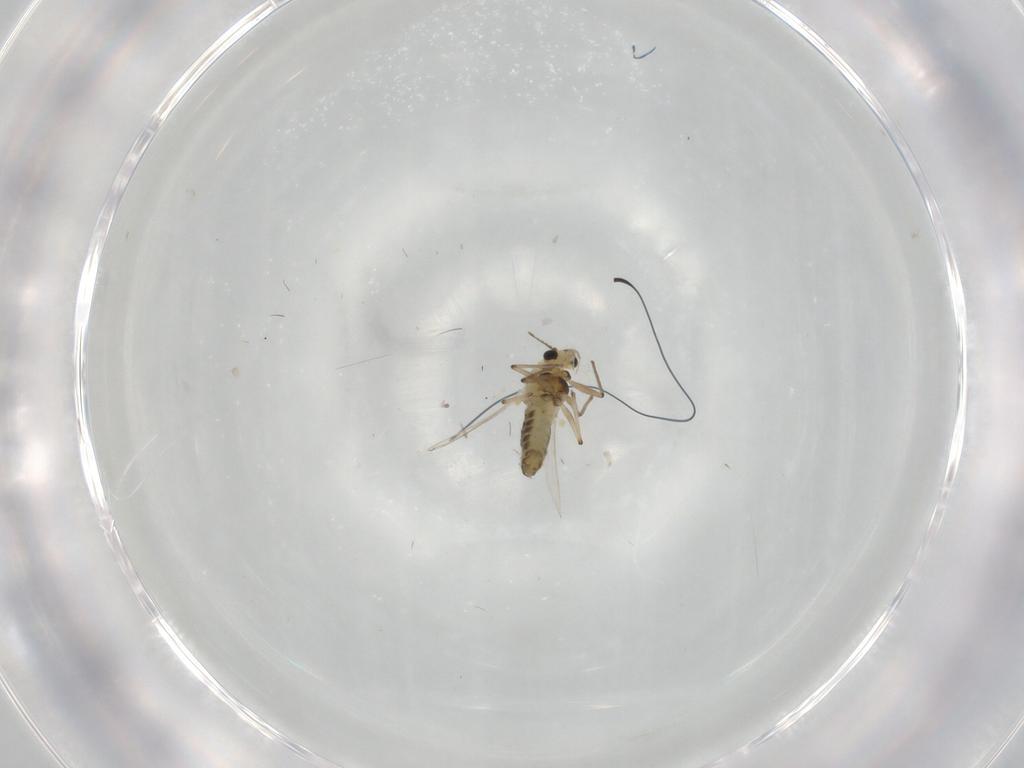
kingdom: Animalia
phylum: Arthropoda
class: Insecta
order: Diptera
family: Chironomidae
